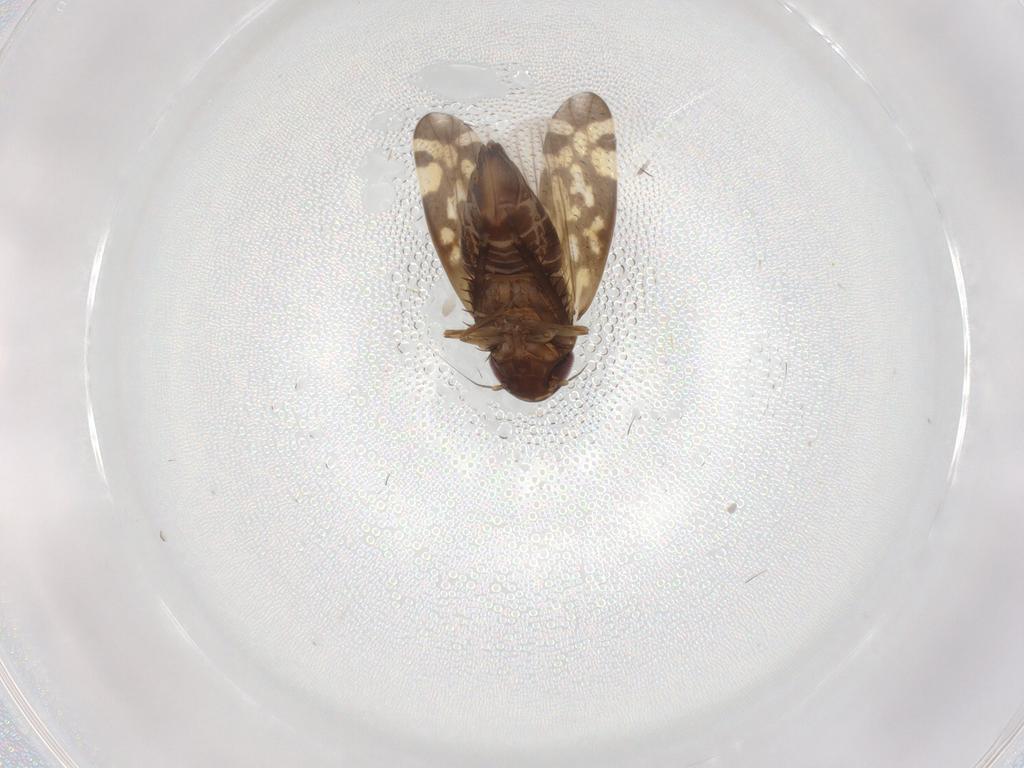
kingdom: Animalia
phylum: Arthropoda
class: Insecta
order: Hemiptera
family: Cicadellidae
